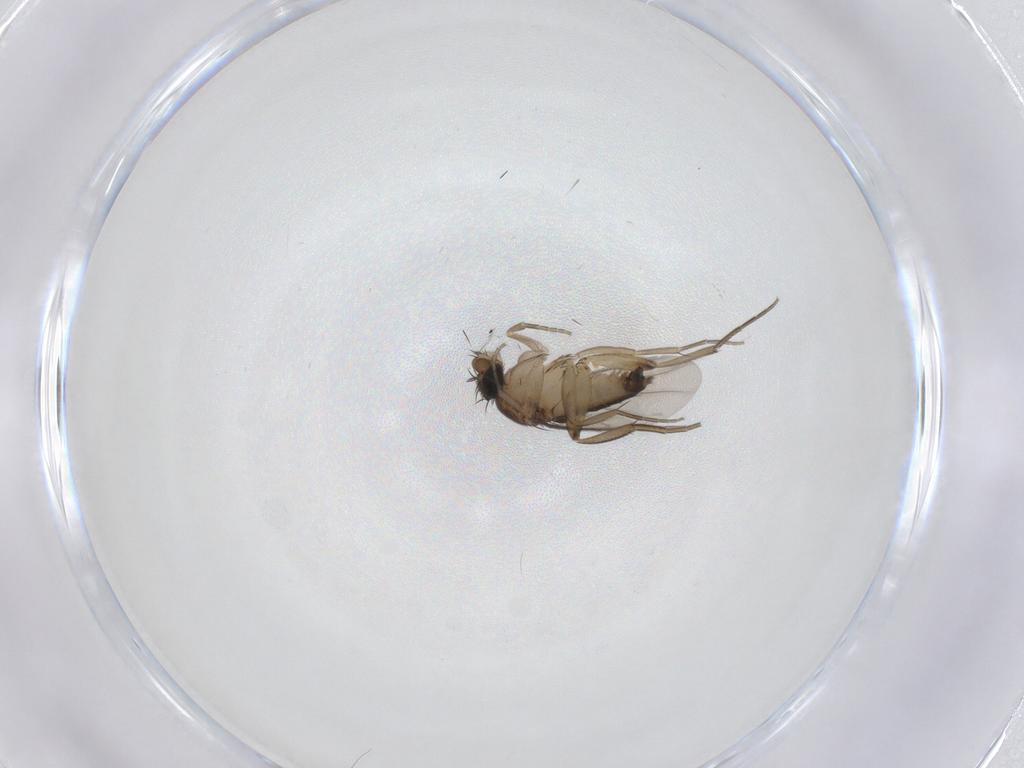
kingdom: Animalia
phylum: Arthropoda
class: Insecta
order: Diptera
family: Phoridae
